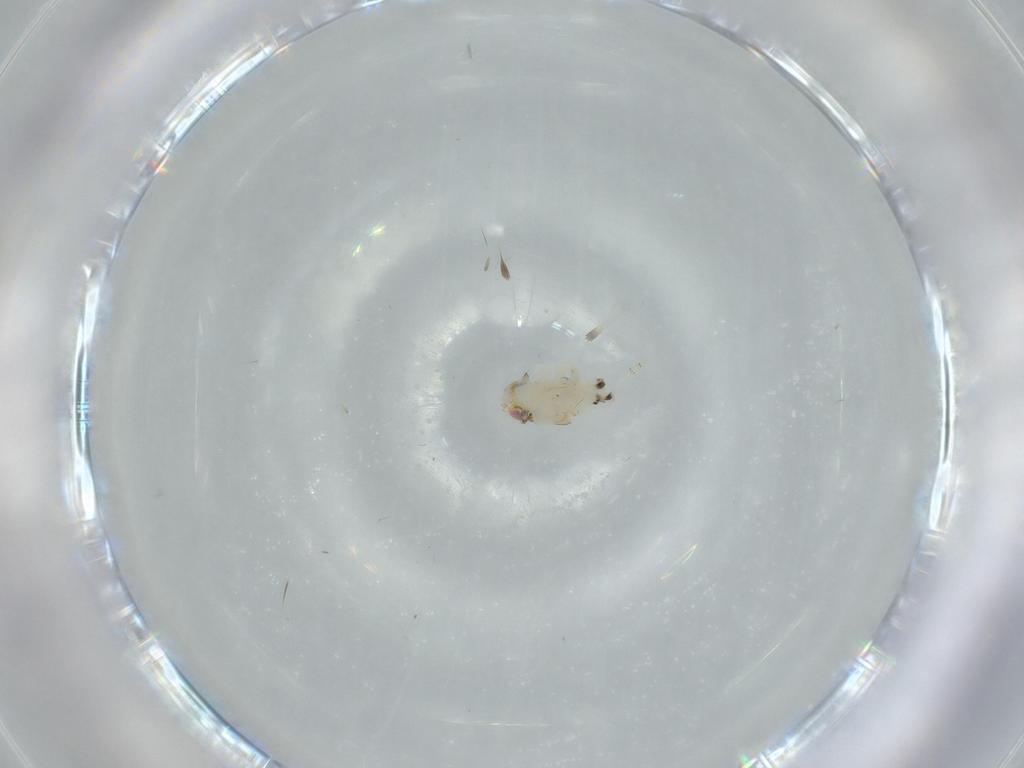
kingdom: Animalia
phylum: Arthropoda
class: Insecta
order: Hemiptera
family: Nogodinidae
